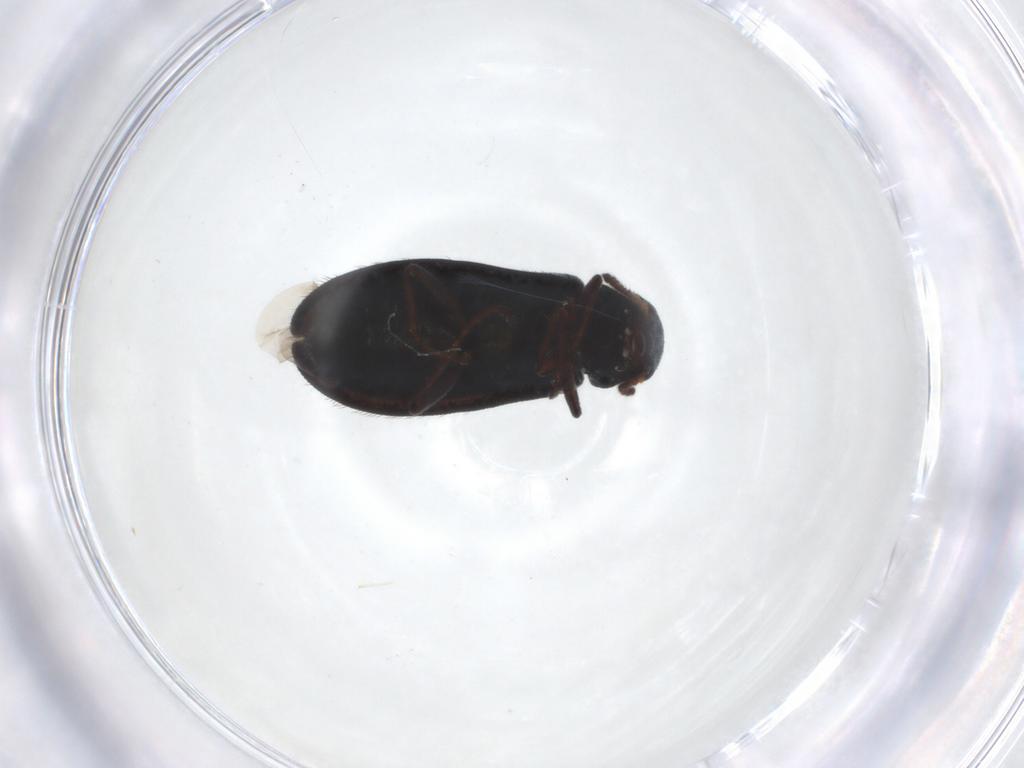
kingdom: Animalia
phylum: Arthropoda
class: Insecta
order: Coleoptera
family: Melyridae
